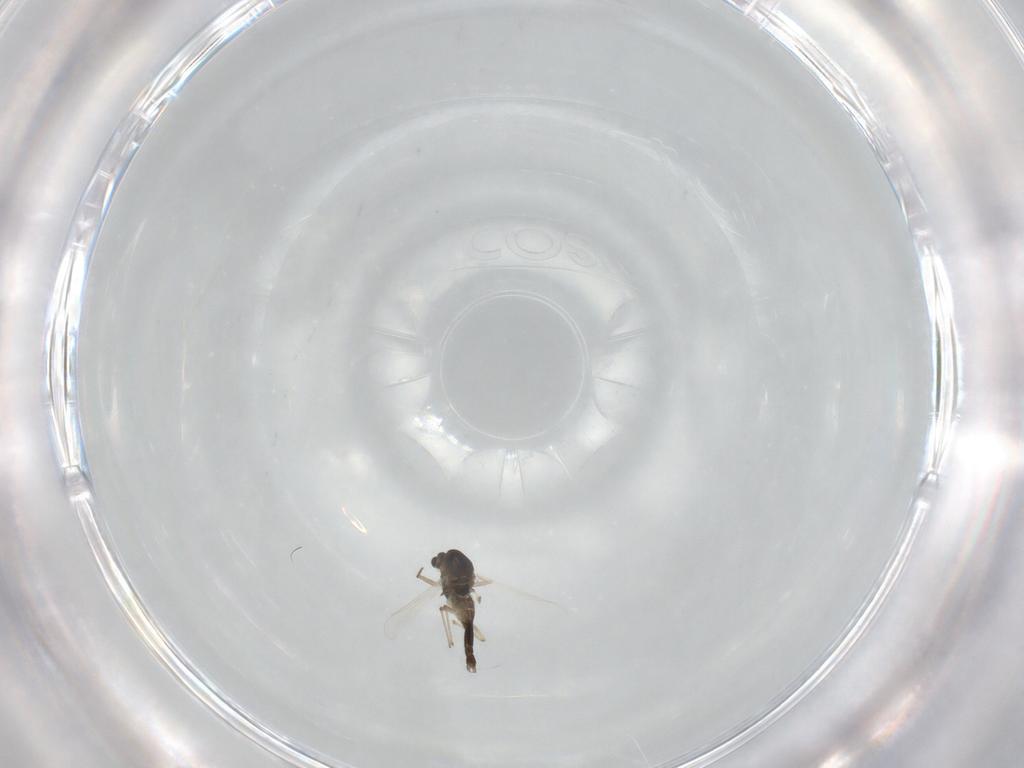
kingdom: Animalia
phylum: Arthropoda
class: Insecta
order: Diptera
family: Chironomidae
